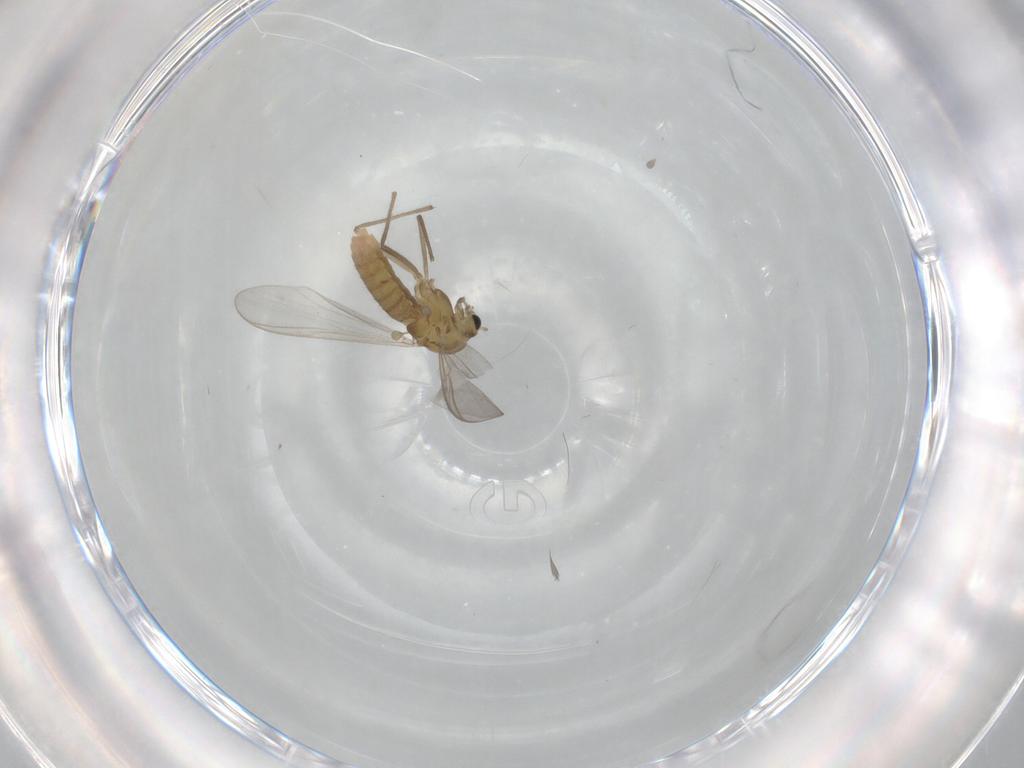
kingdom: Animalia
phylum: Arthropoda
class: Insecta
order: Diptera
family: Chironomidae
